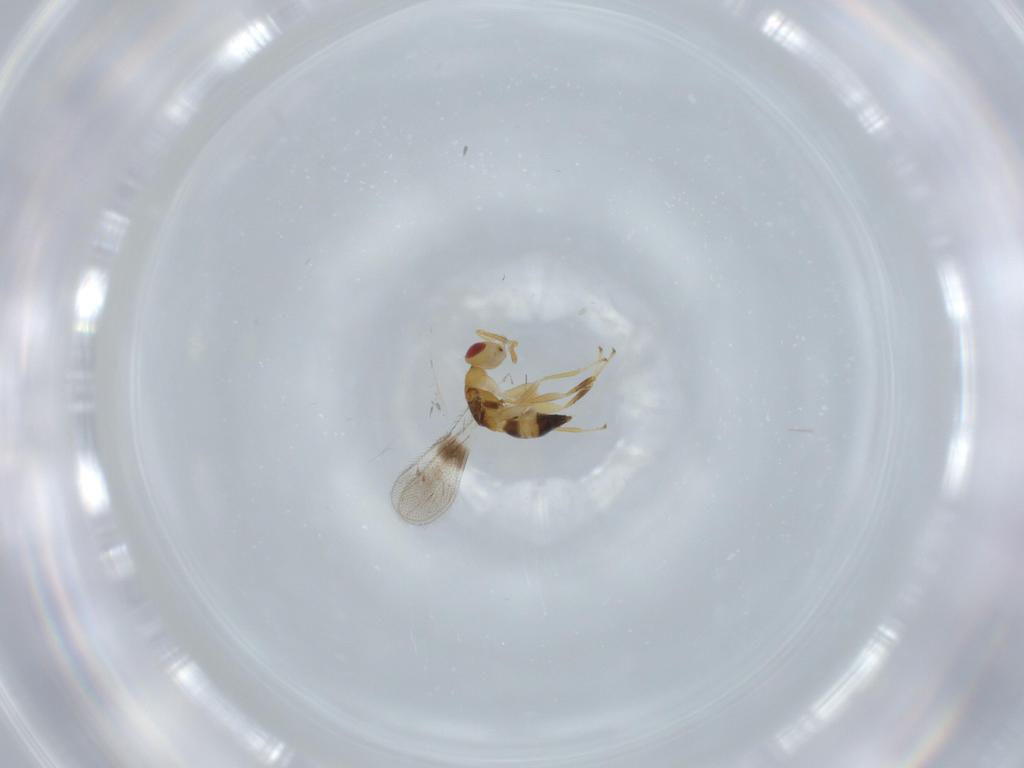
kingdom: Animalia
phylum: Arthropoda
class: Insecta
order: Hymenoptera
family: Torymidae
